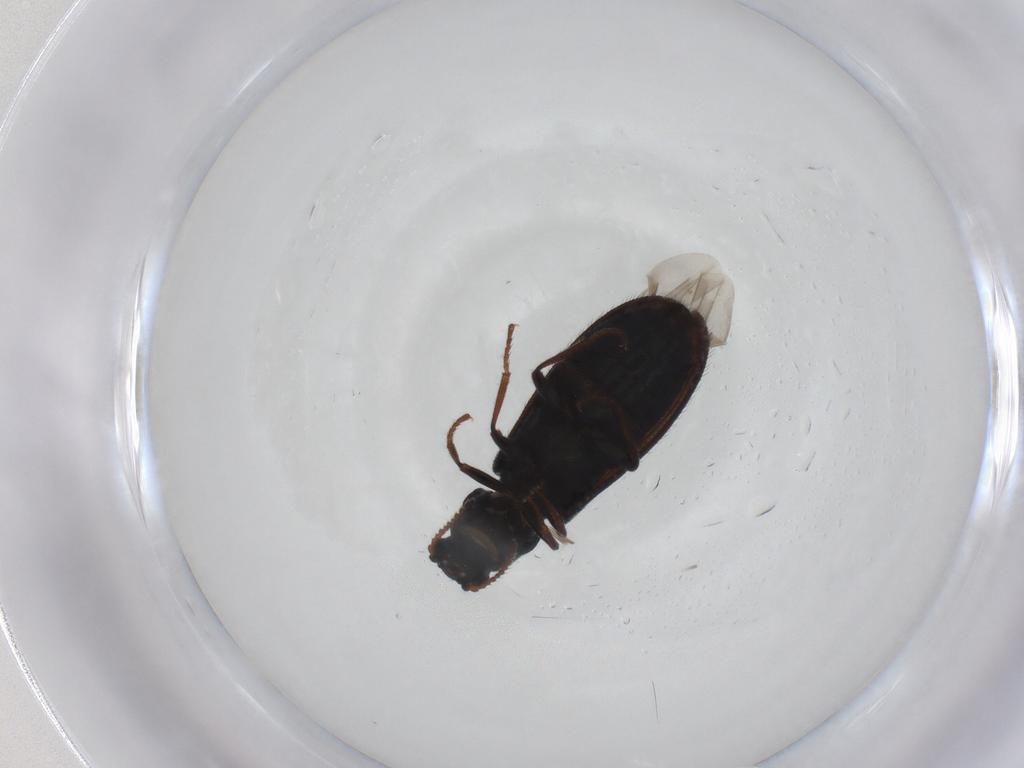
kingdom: Animalia
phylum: Arthropoda
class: Insecta
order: Coleoptera
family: Melyridae
